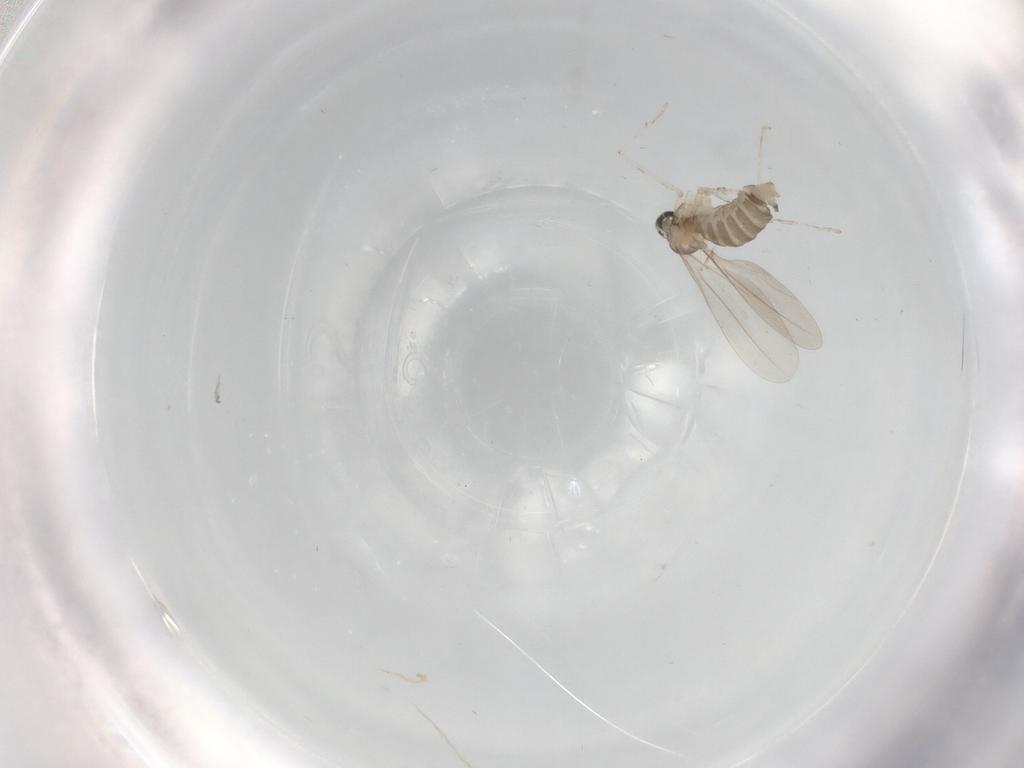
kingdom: Animalia
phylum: Arthropoda
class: Insecta
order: Diptera
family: Cecidomyiidae
